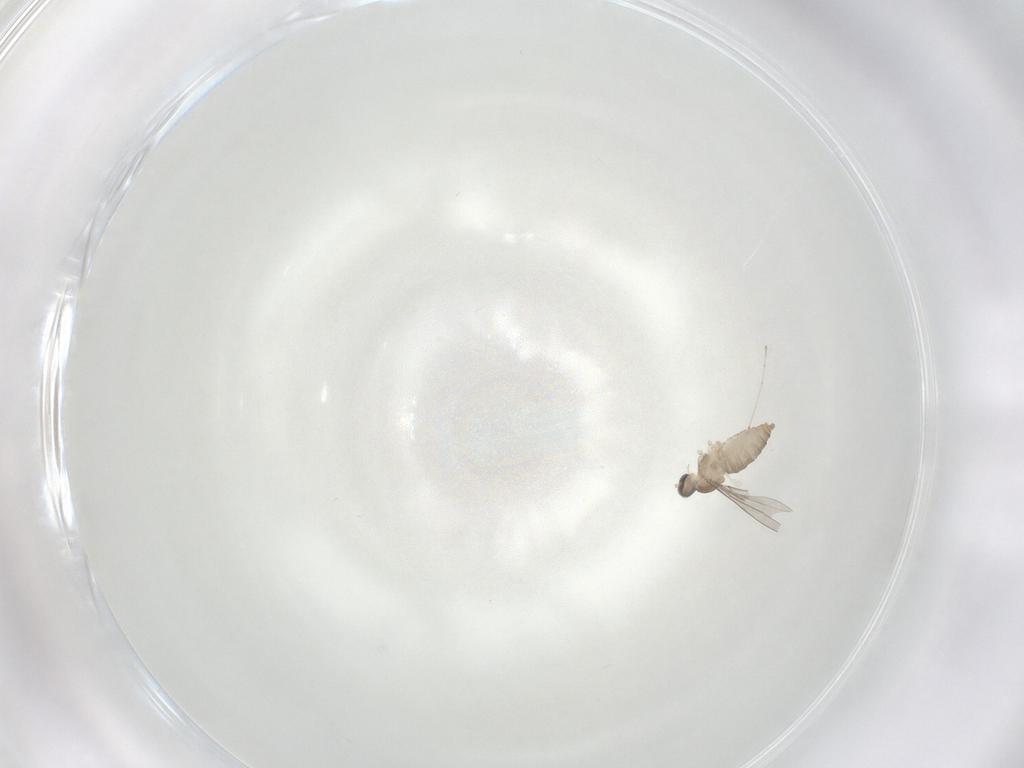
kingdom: Animalia
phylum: Arthropoda
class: Insecta
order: Diptera
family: Cecidomyiidae
